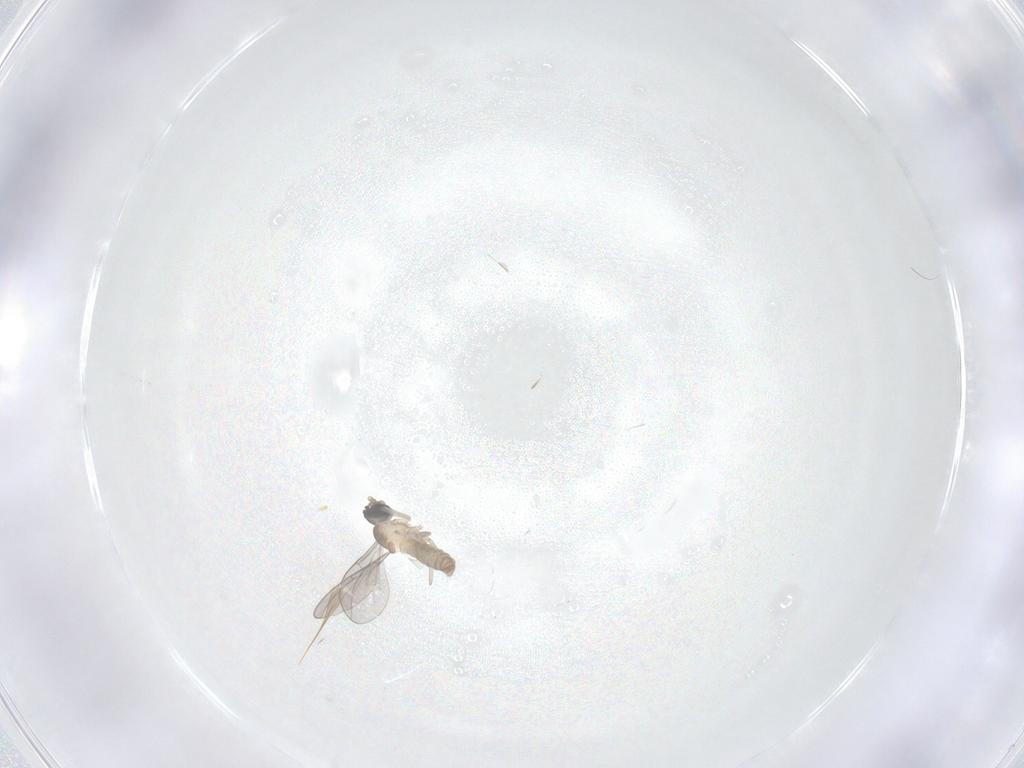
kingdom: Animalia
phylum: Arthropoda
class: Insecta
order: Diptera
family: Cecidomyiidae
